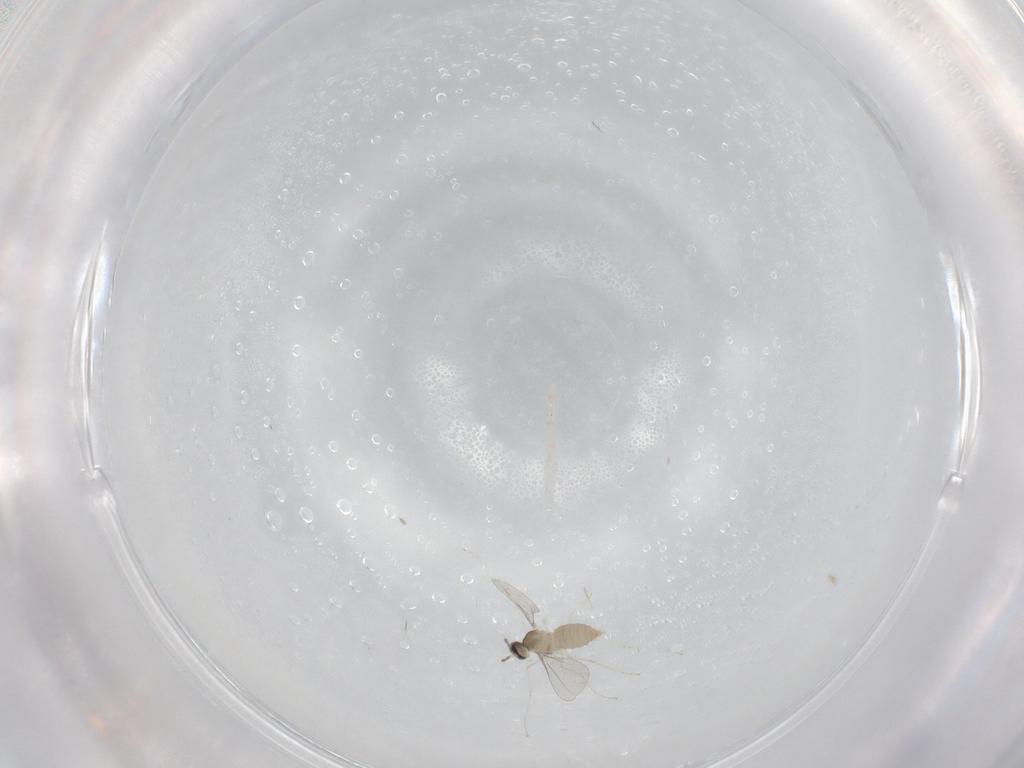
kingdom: Animalia
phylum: Arthropoda
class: Insecta
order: Diptera
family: Cecidomyiidae
